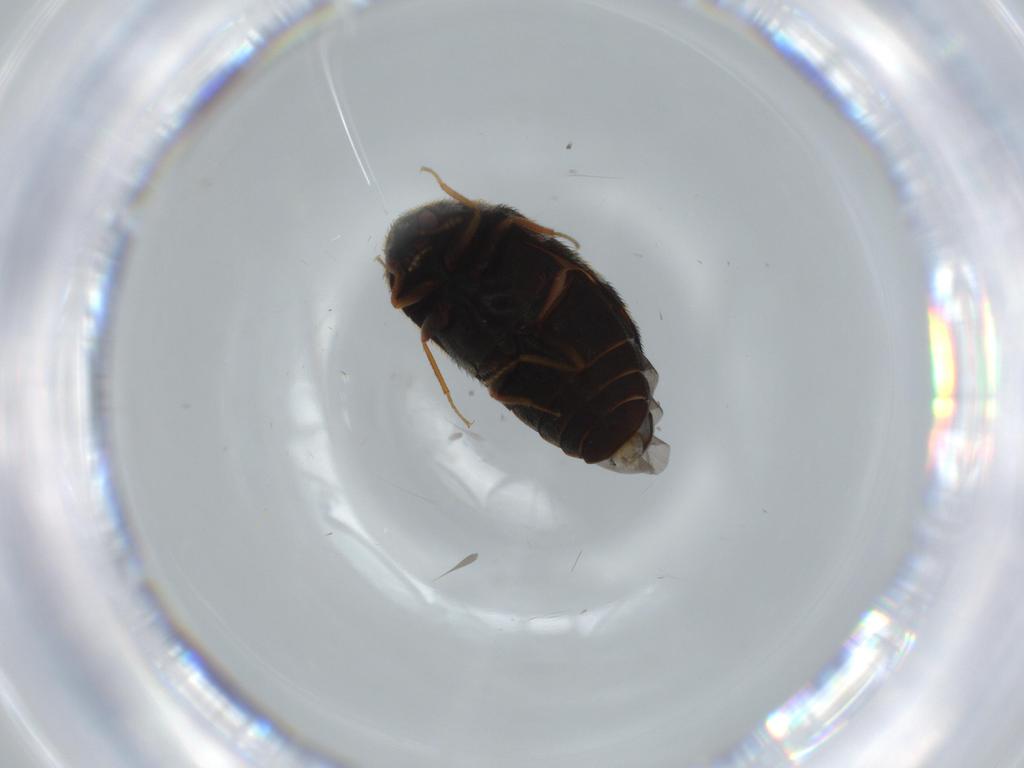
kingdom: Animalia
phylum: Arthropoda
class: Insecta
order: Coleoptera
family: Dermestidae
